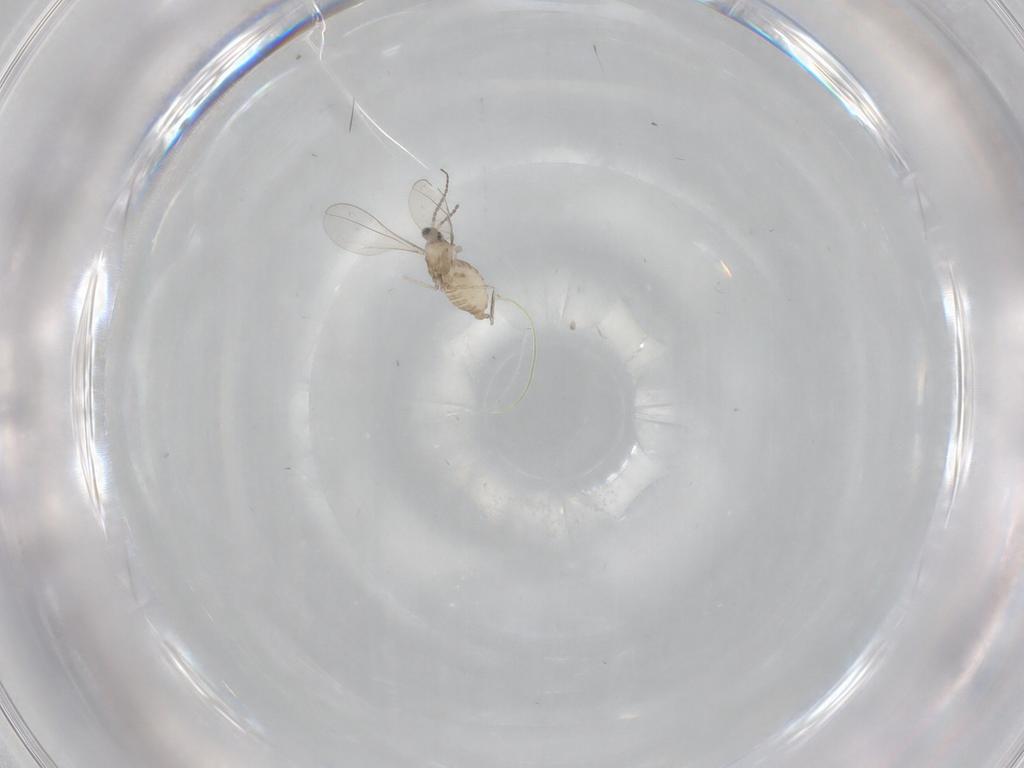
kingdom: Animalia
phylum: Arthropoda
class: Insecta
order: Diptera
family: Cecidomyiidae
